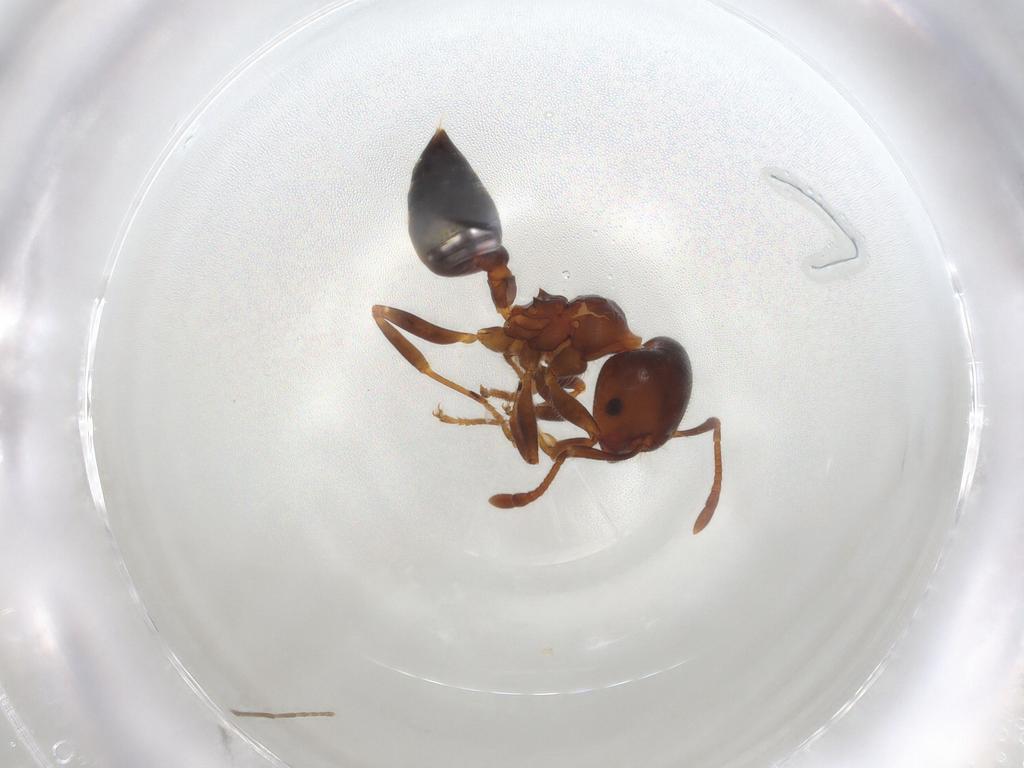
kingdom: Animalia
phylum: Arthropoda
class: Insecta
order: Hymenoptera
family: Formicidae
